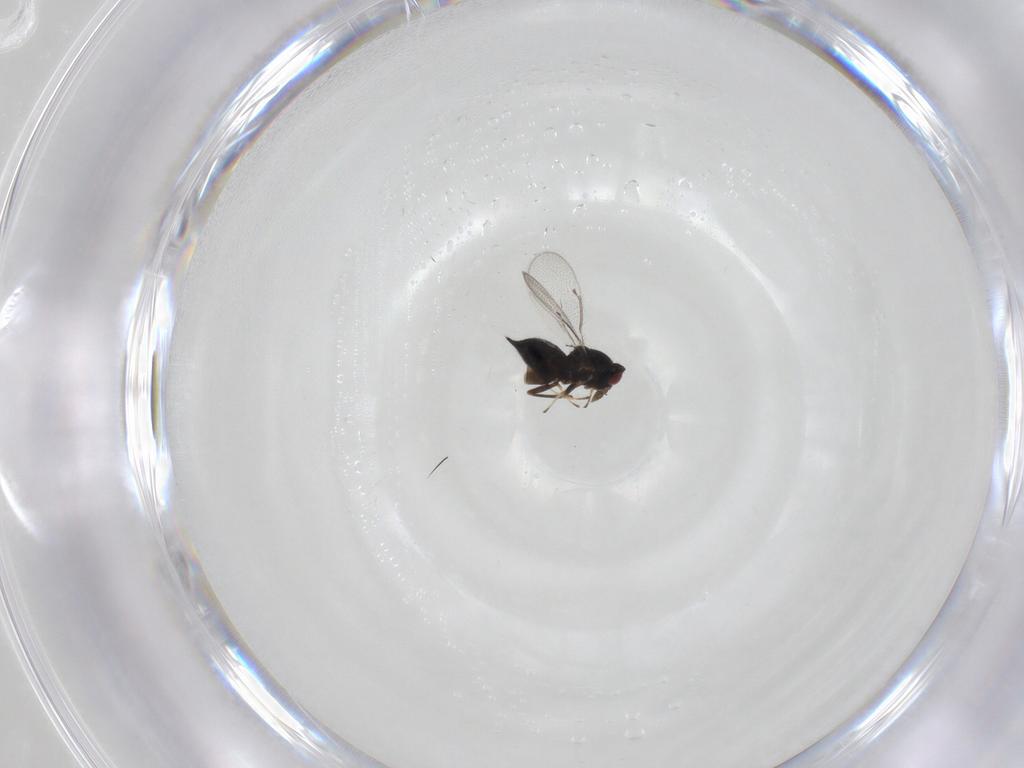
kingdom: Animalia
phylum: Arthropoda
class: Insecta
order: Hymenoptera
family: Eulophidae
